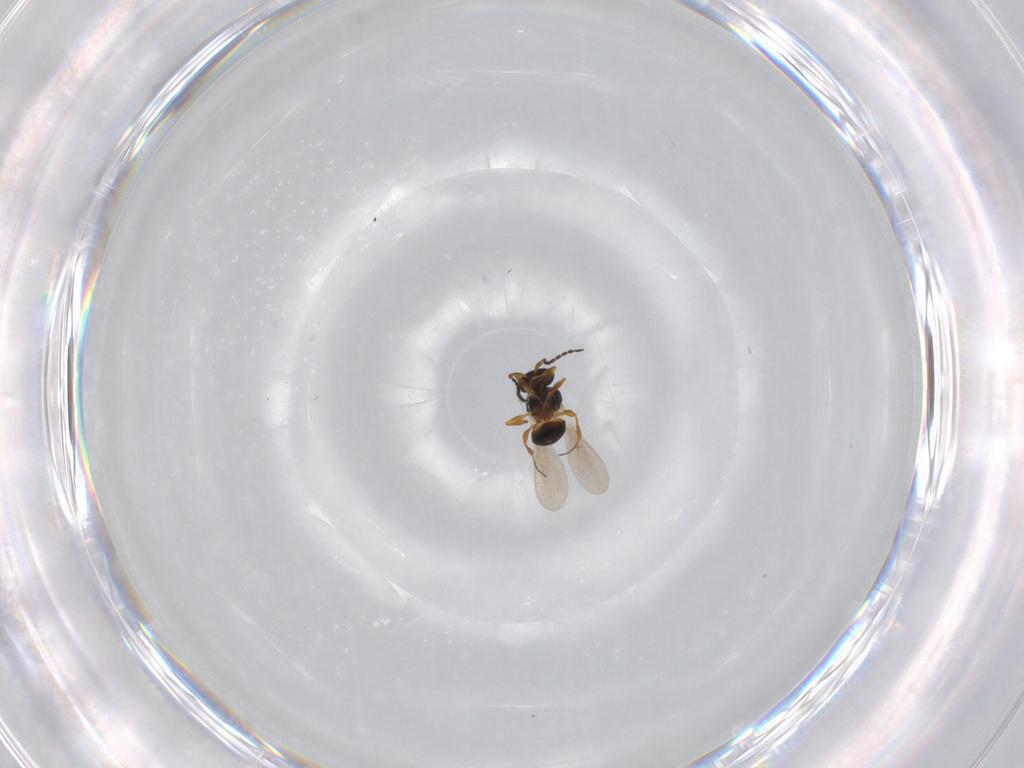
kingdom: Animalia
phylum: Arthropoda
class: Insecta
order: Hymenoptera
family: Platygastridae
